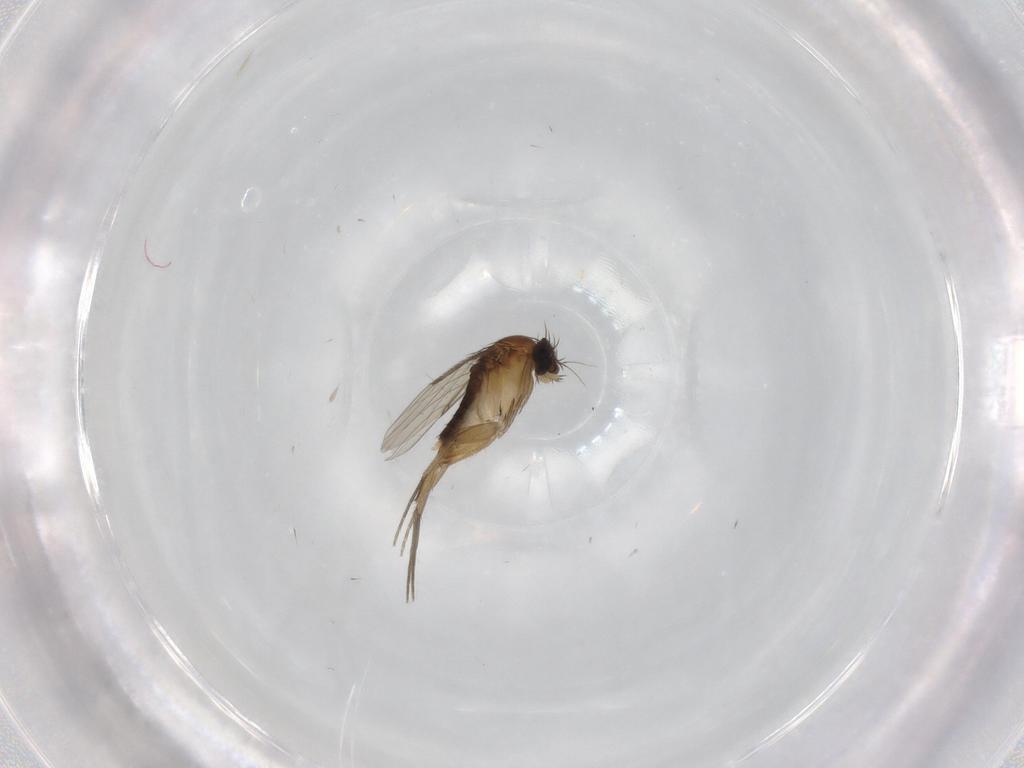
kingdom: Animalia
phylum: Arthropoda
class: Insecta
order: Diptera
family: Phoridae
